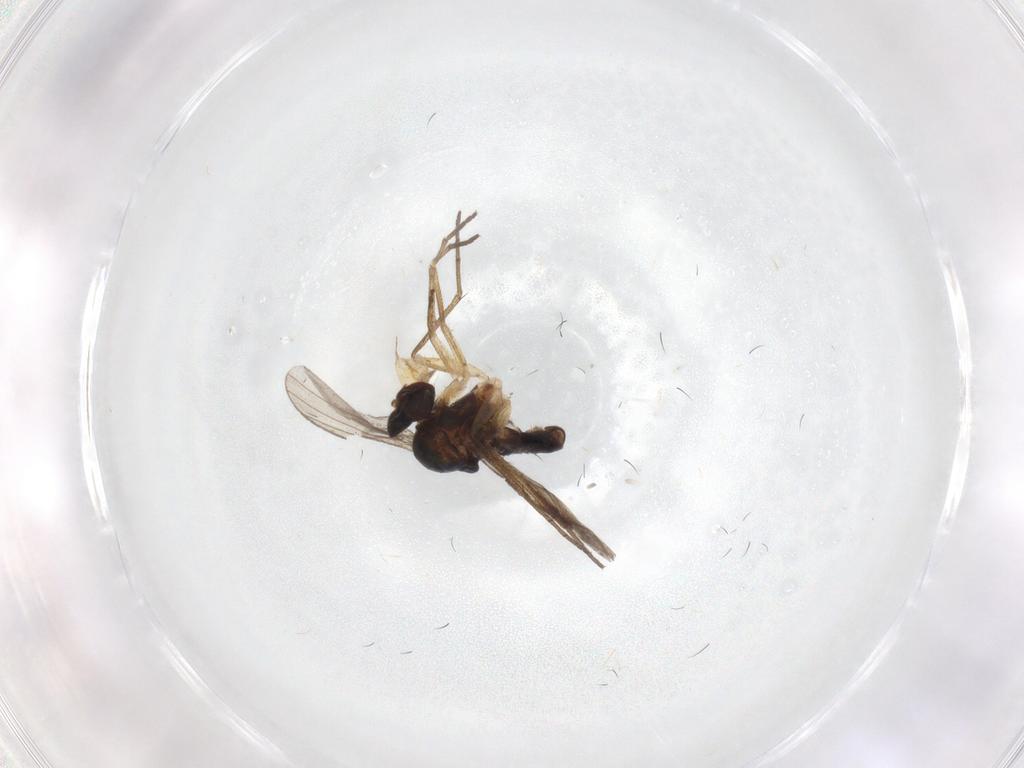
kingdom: Animalia
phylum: Arthropoda
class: Insecta
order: Diptera
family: Dolichopodidae
